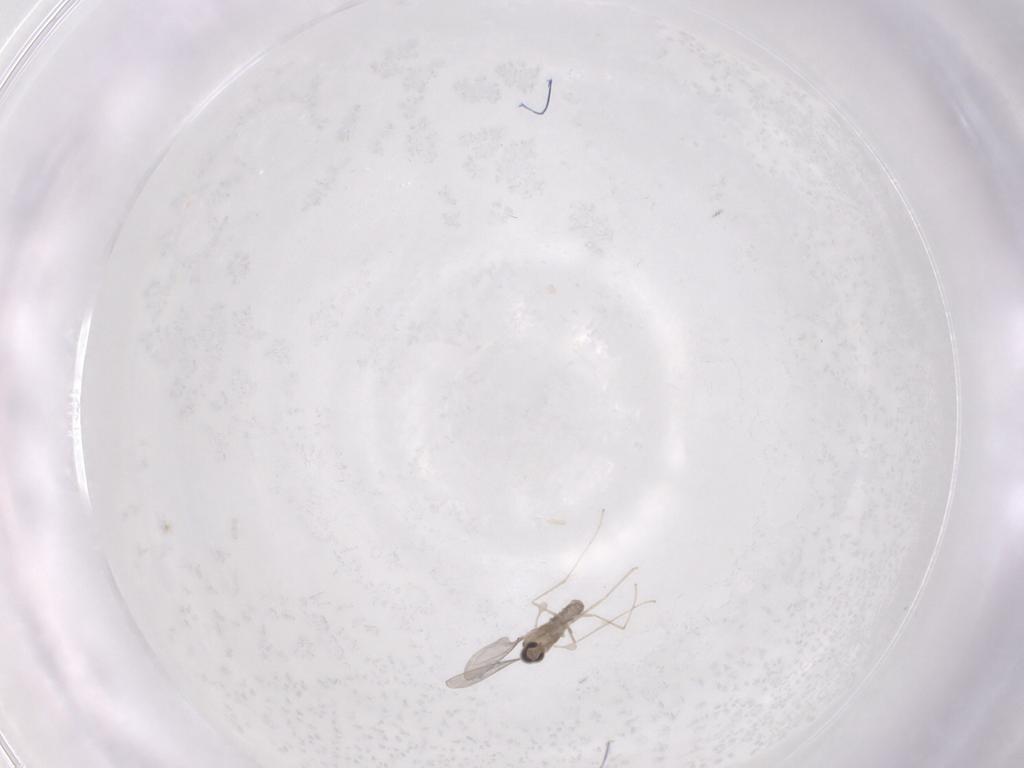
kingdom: Animalia
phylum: Arthropoda
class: Insecta
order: Diptera
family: Cecidomyiidae
